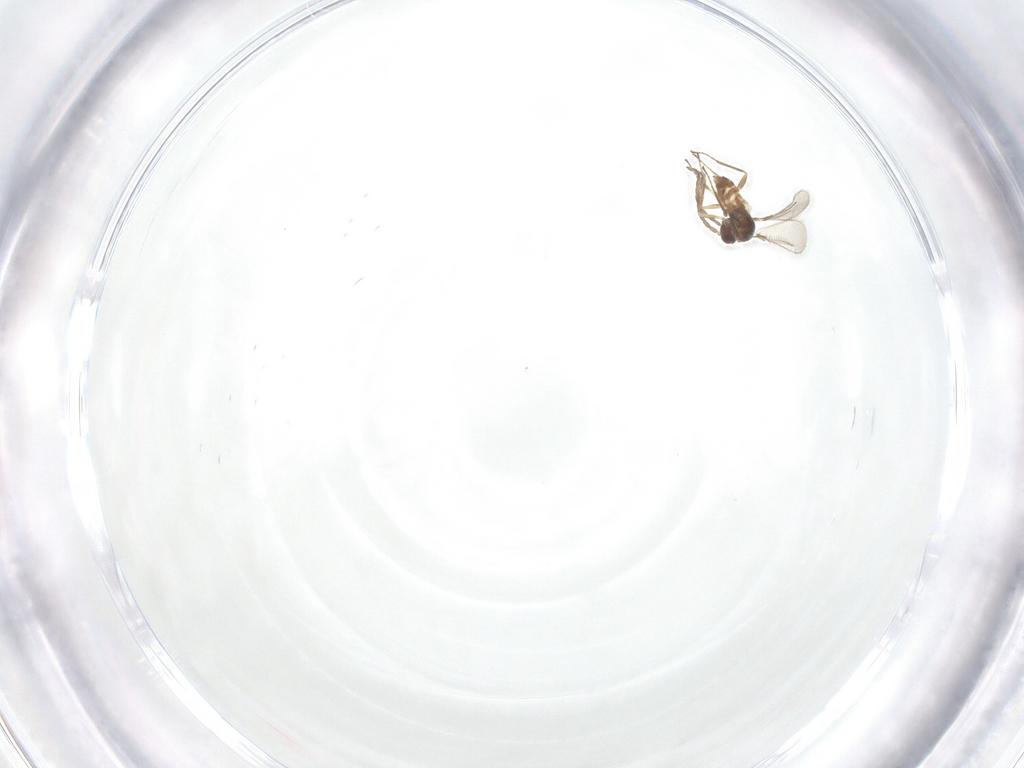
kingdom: Animalia
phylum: Arthropoda
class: Insecta
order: Hymenoptera
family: Mymaridae
